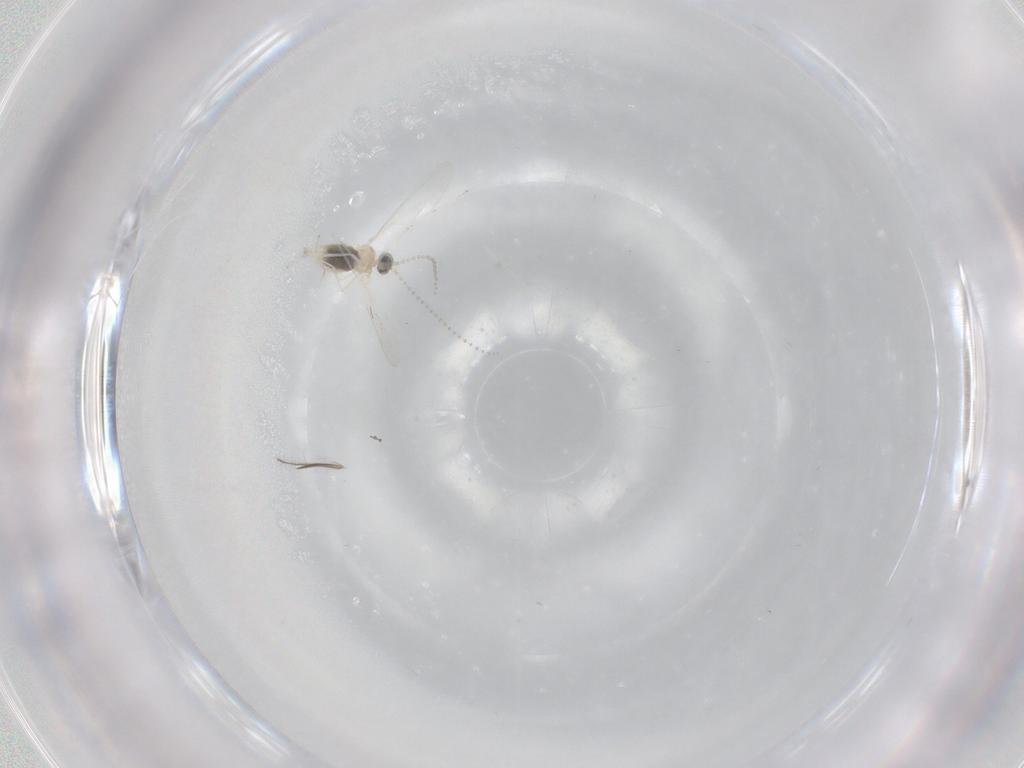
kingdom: Animalia
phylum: Arthropoda
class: Insecta
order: Diptera
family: Cecidomyiidae
